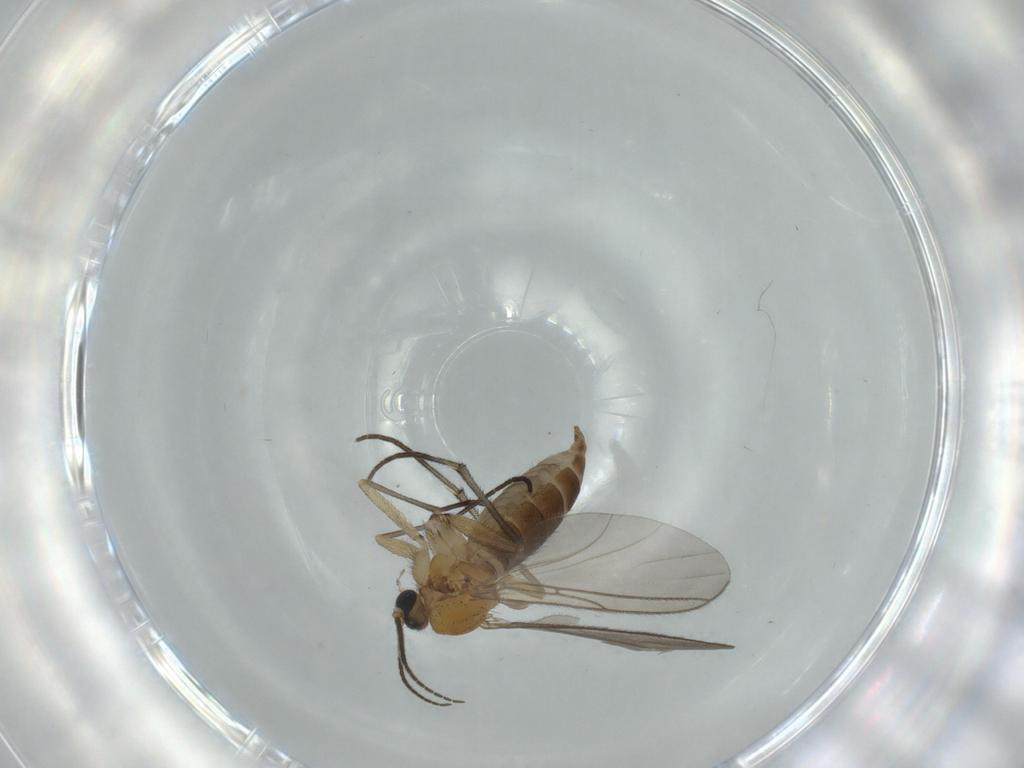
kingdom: Animalia
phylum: Arthropoda
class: Insecta
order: Diptera
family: Sciaridae
